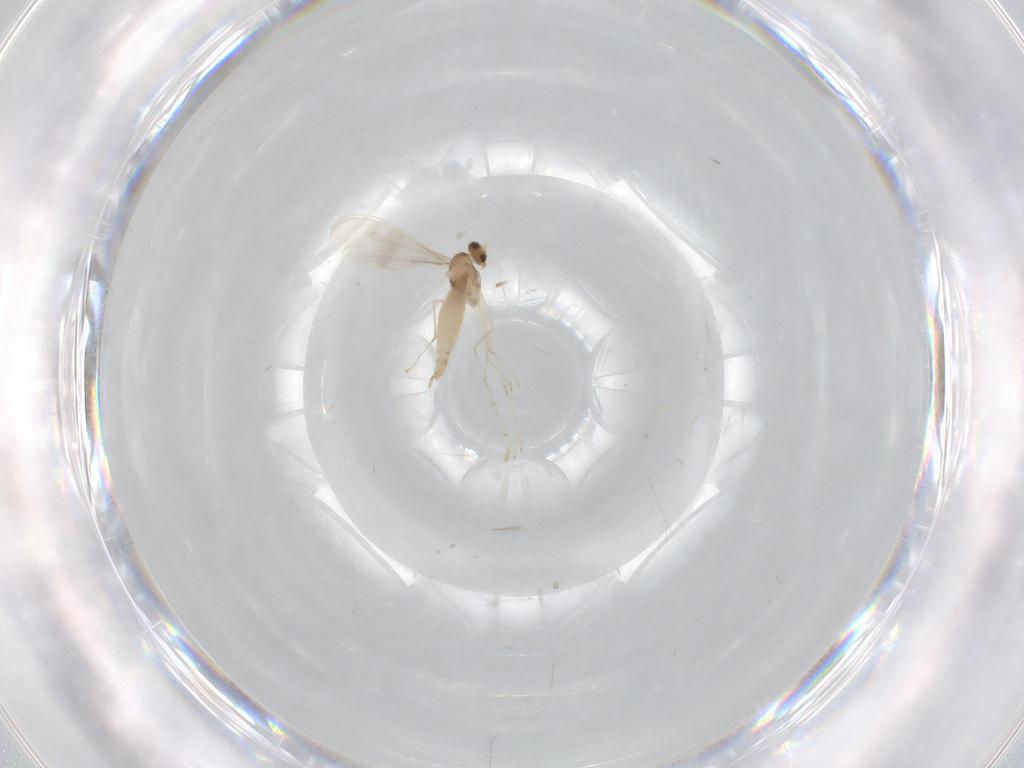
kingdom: Animalia
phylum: Arthropoda
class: Insecta
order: Diptera
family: Cecidomyiidae
